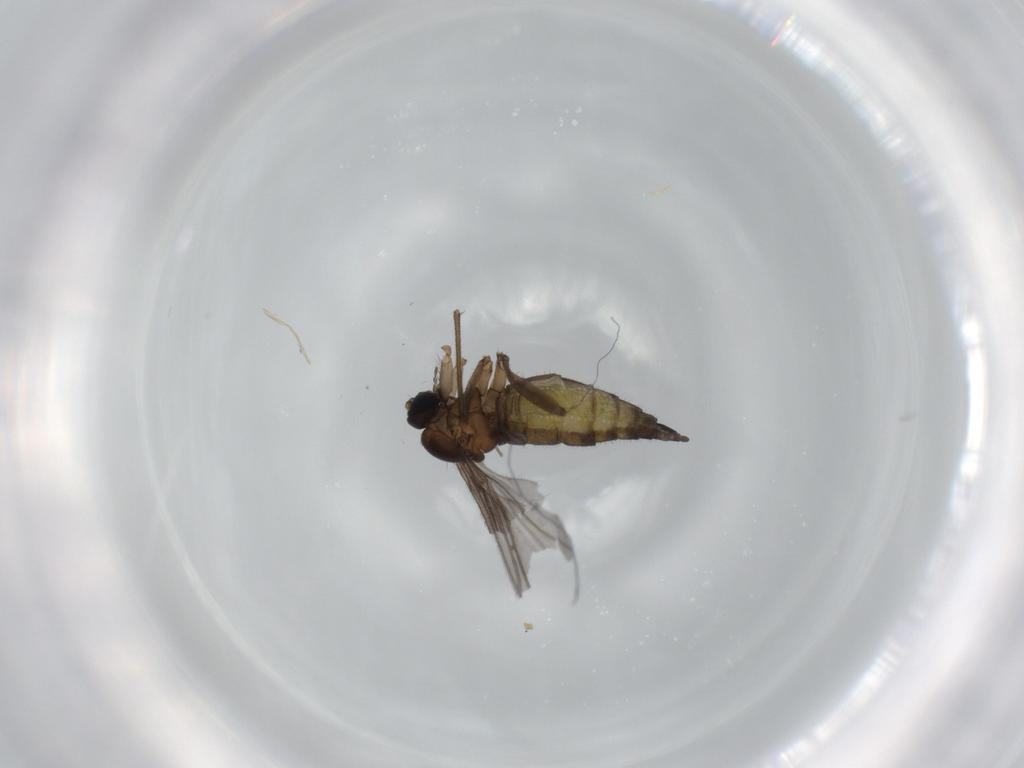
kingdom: Animalia
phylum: Arthropoda
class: Insecta
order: Diptera
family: Sciaridae
